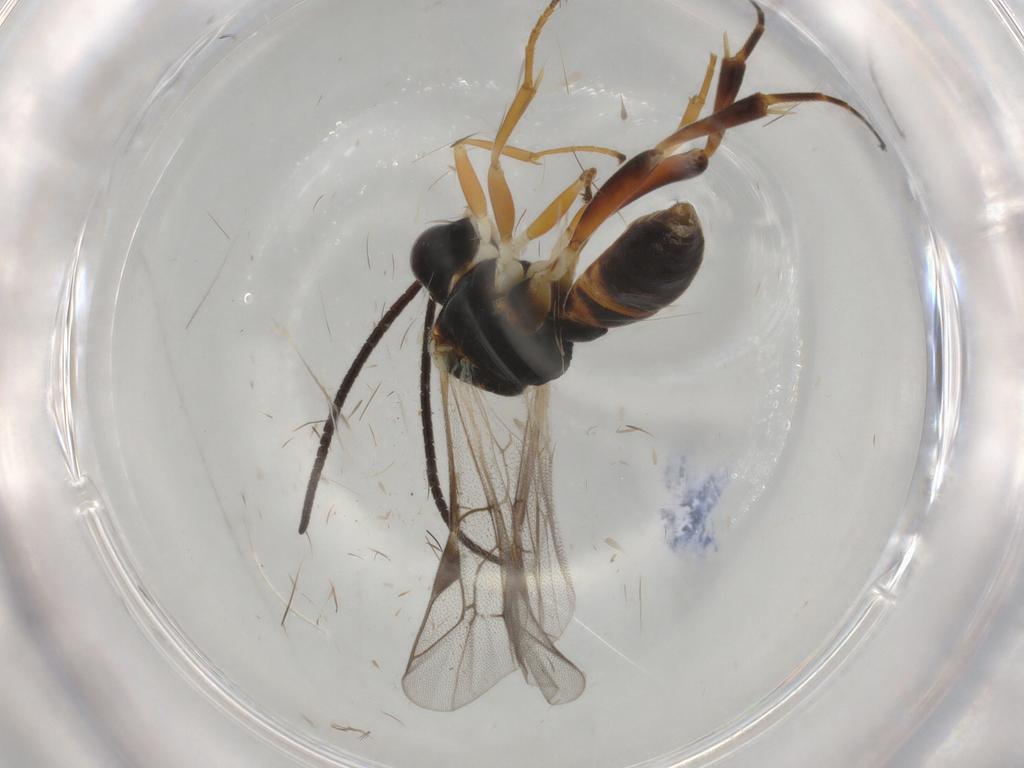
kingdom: Animalia
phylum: Arthropoda
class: Insecta
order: Hymenoptera
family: Ichneumonidae
